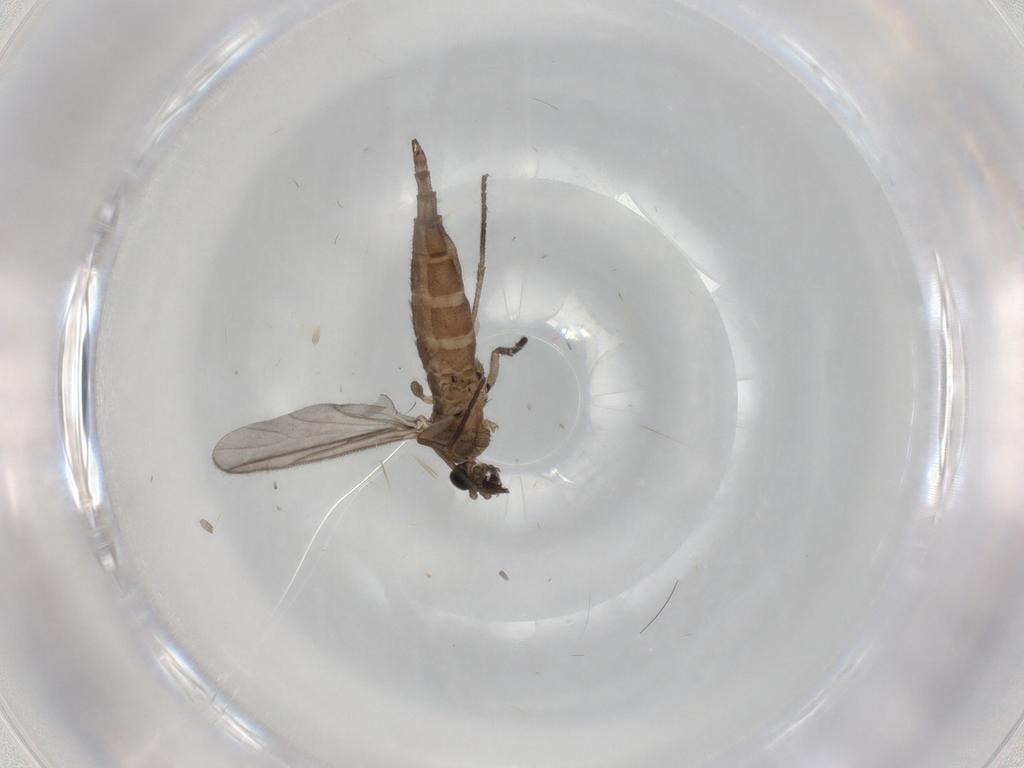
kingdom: Animalia
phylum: Arthropoda
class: Insecta
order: Diptera
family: Sciaridae
